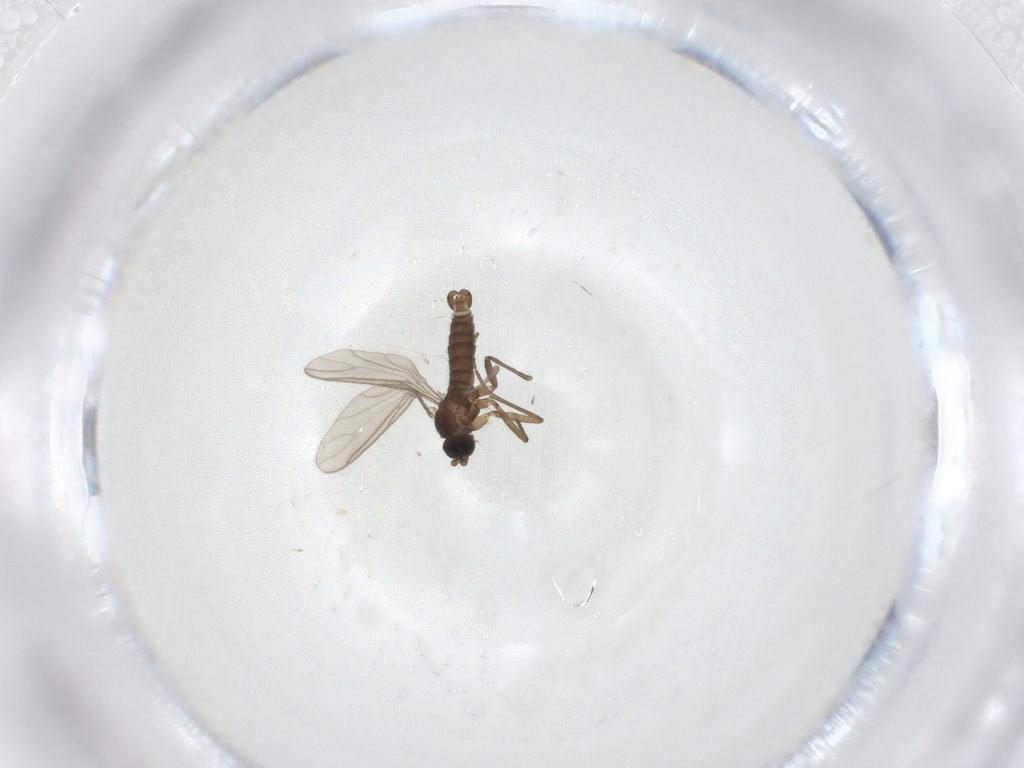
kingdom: Animalia
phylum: Arthropoda
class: Insecta
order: Diptera
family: Sciaridae
